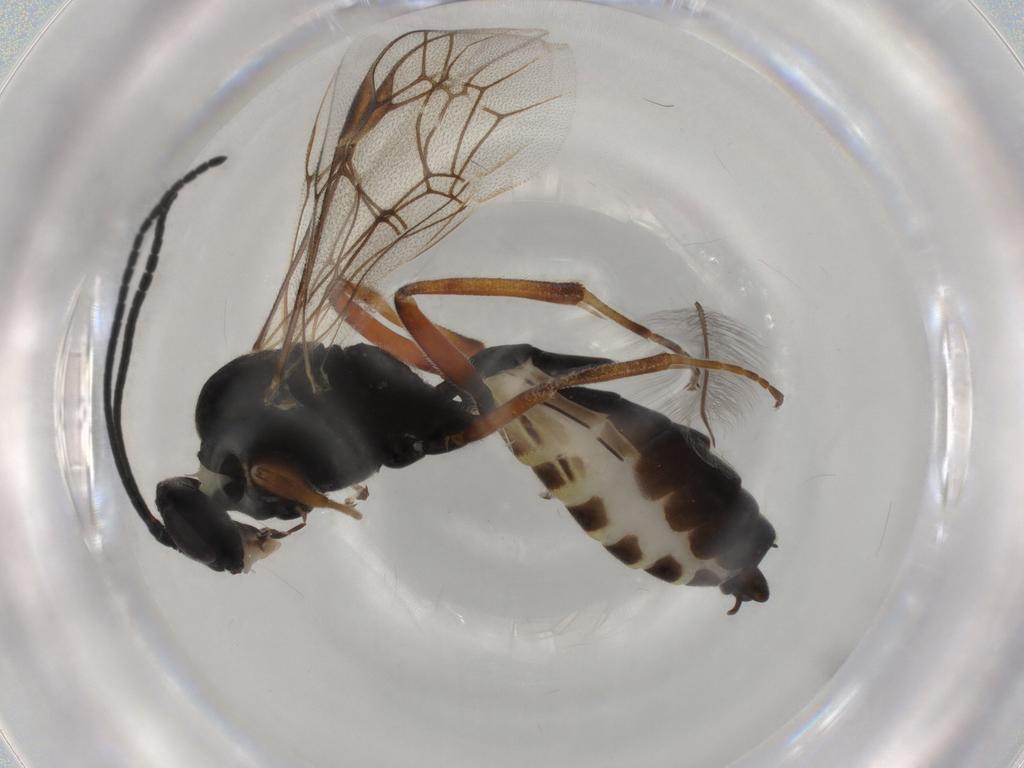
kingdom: Animalia
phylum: Arthropoda
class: Insecta
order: Hymenoptera
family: Ichneumonidae
